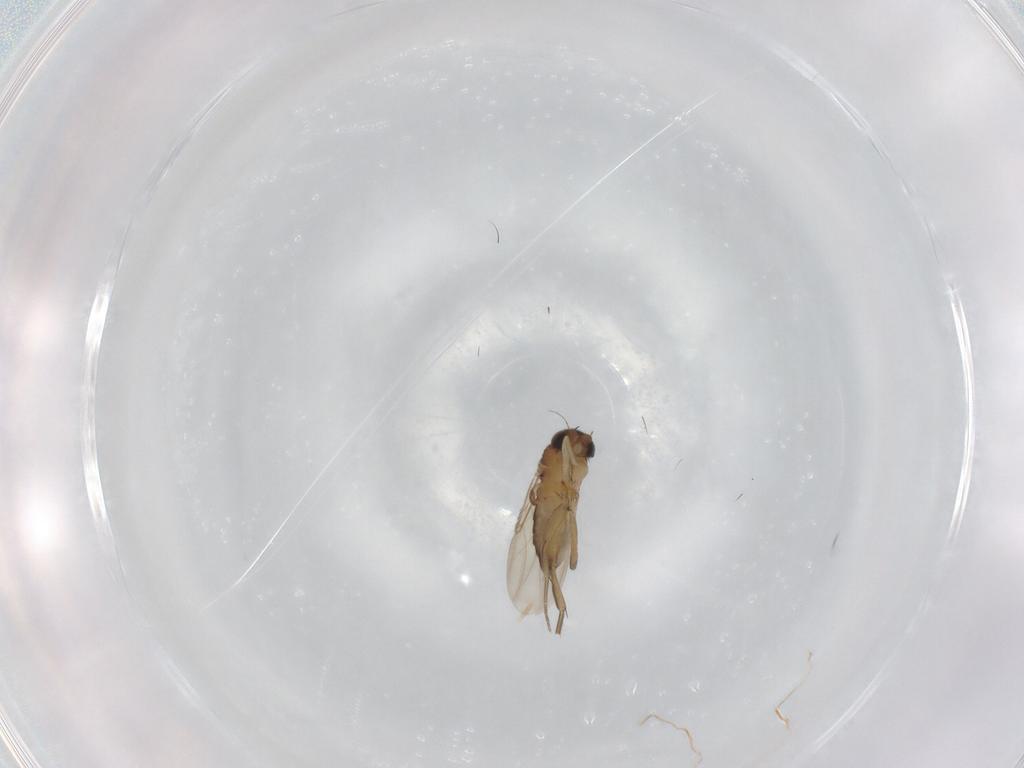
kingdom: Animalia
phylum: Arthropoda
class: Insecta
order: Diptera
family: Phoridae
